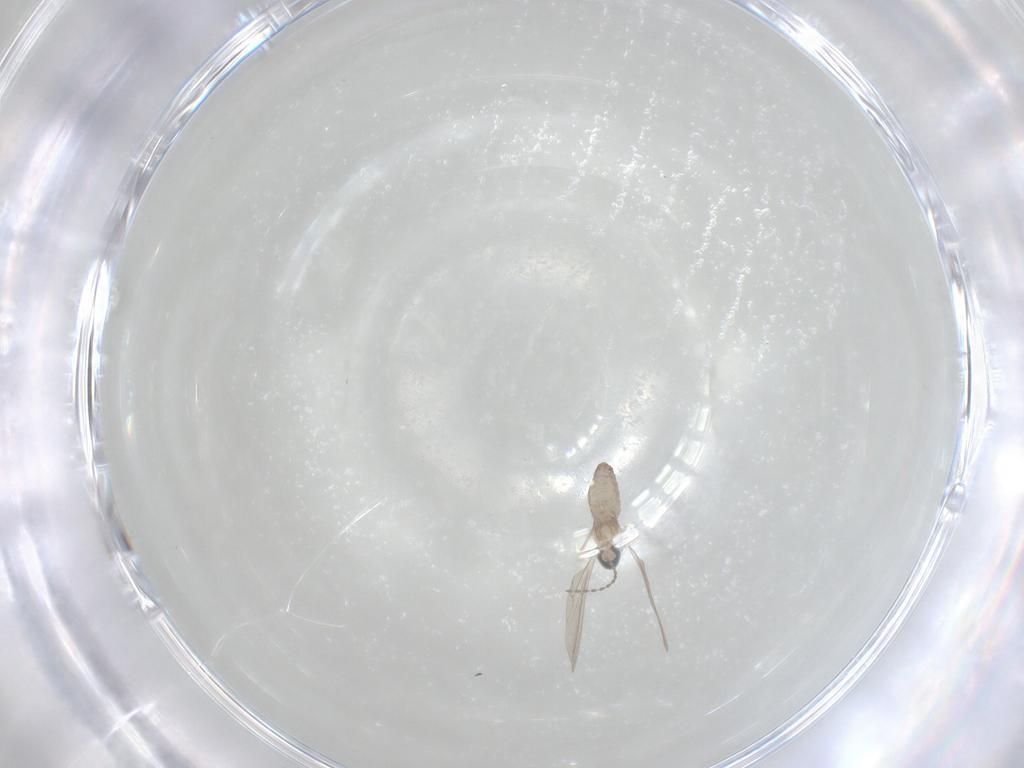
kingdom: Animalia
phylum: Arthropoda
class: Insecta
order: Diptera
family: Cecidomyiidae
